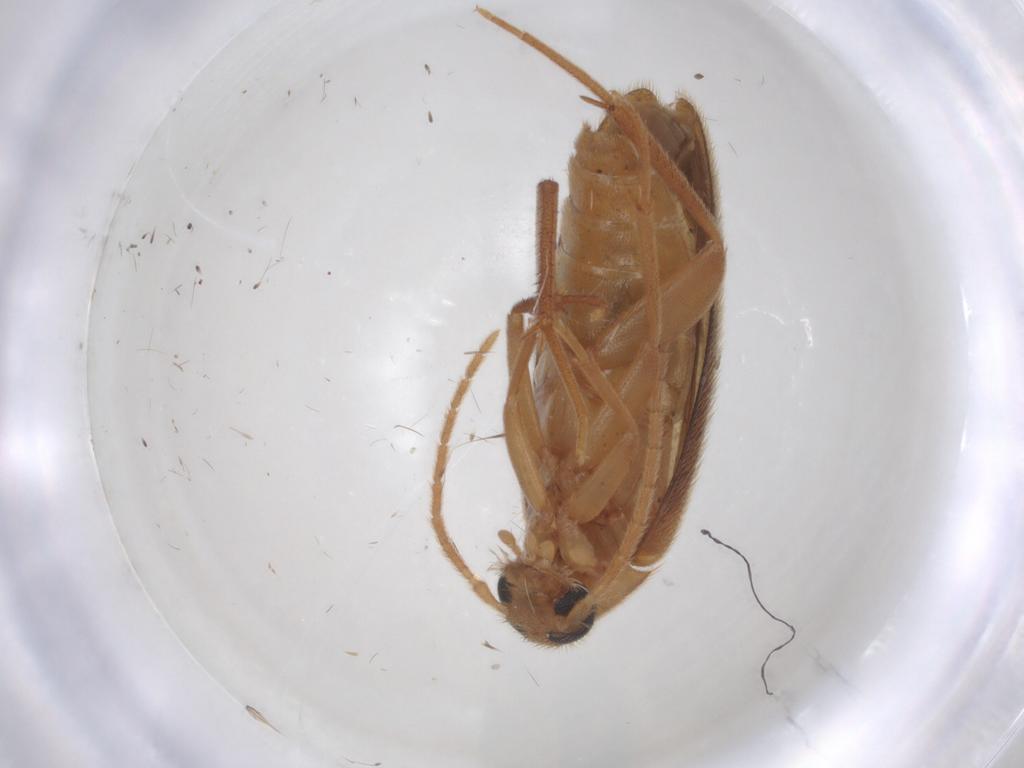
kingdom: Animalia
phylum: Arthropoda
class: Insecta
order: Coleoptera
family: Scraptiidae
